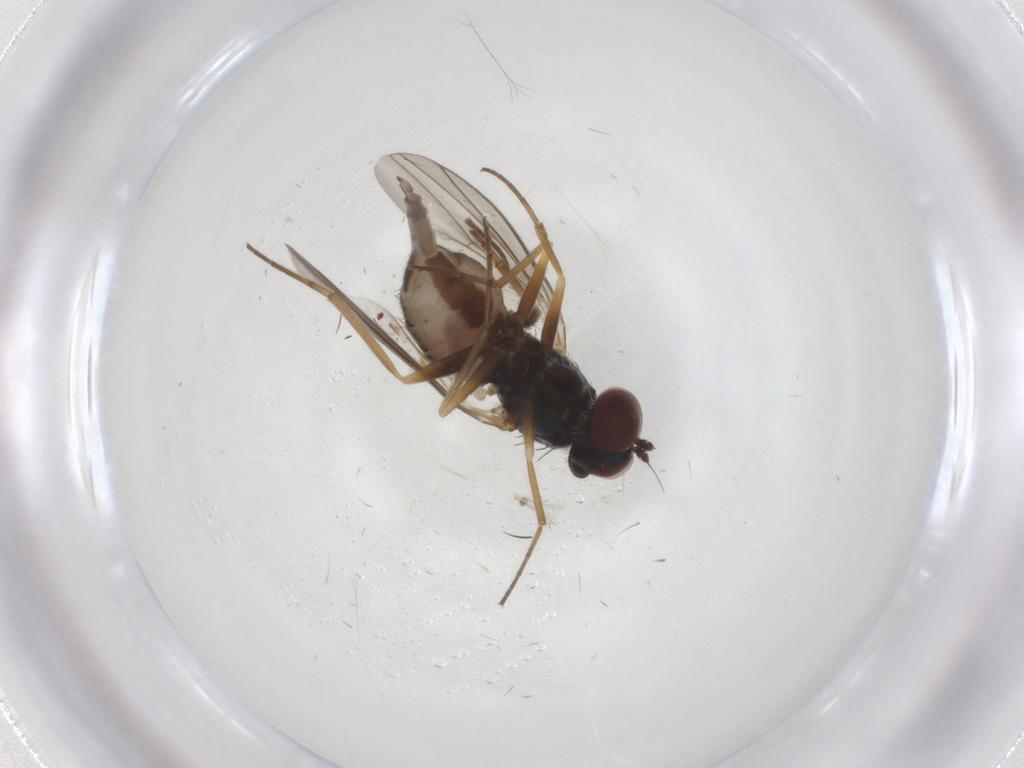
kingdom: Animalia
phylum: Arthropoda
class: Insecta
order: Diptera
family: Dolichopodidae
